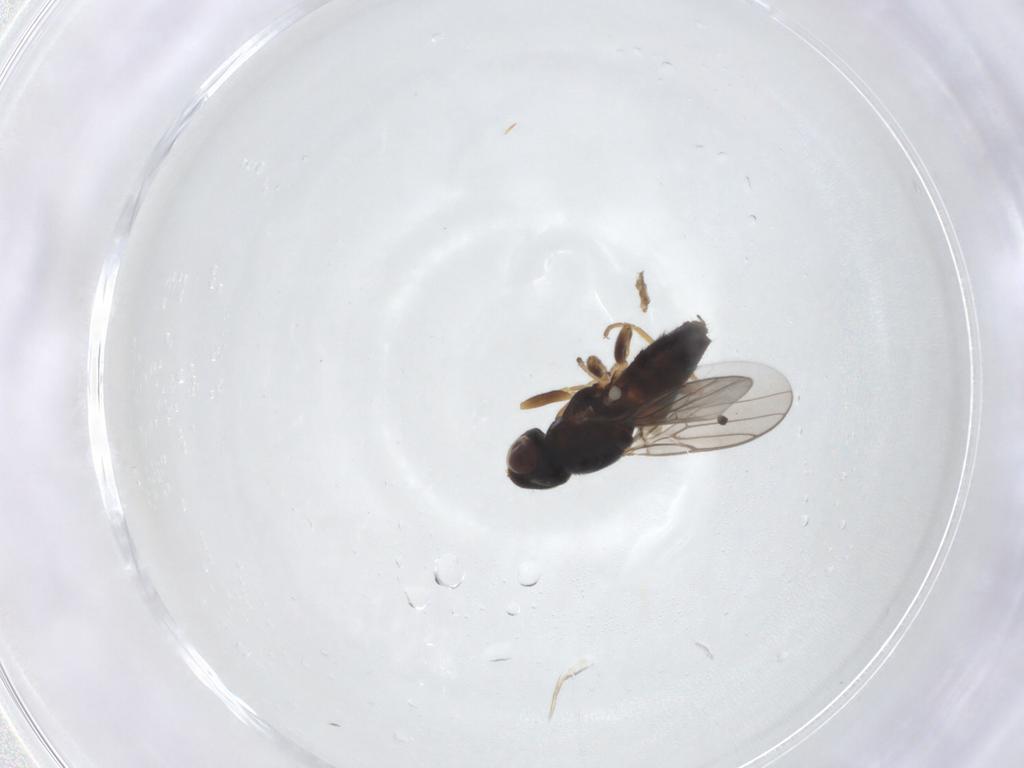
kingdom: Animalia
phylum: Arthropoda
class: Insecta
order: Diptera
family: Chloropidae
